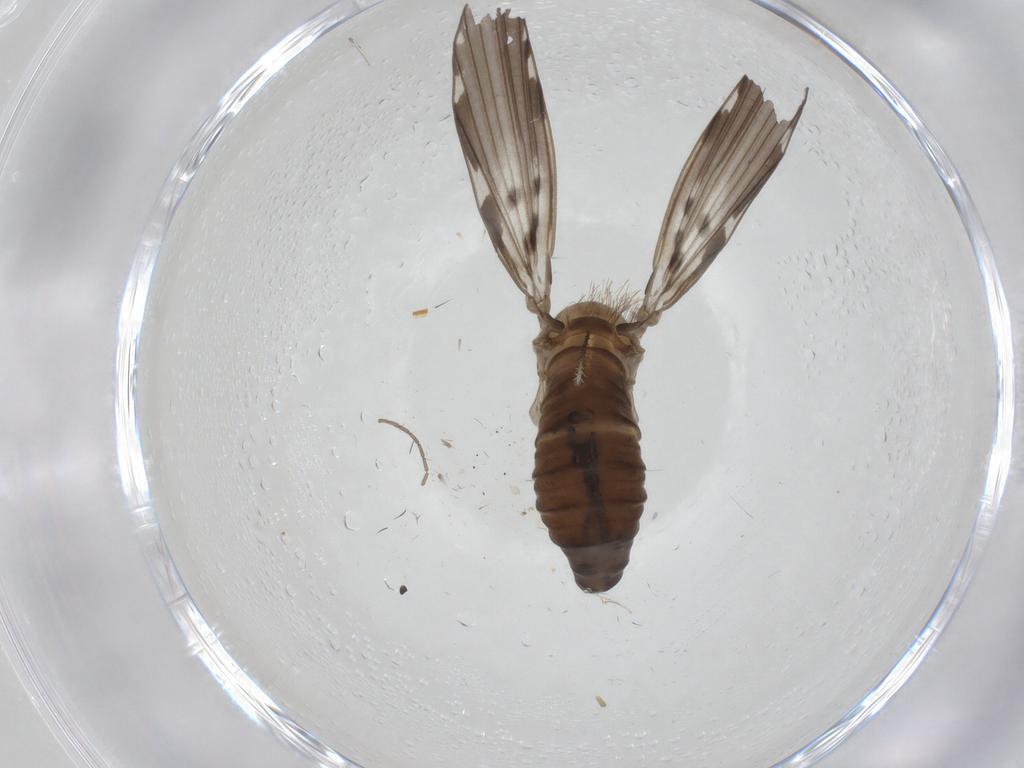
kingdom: Animalia
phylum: Arthropoda
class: Insecta
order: Diptera
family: Psychodidae
